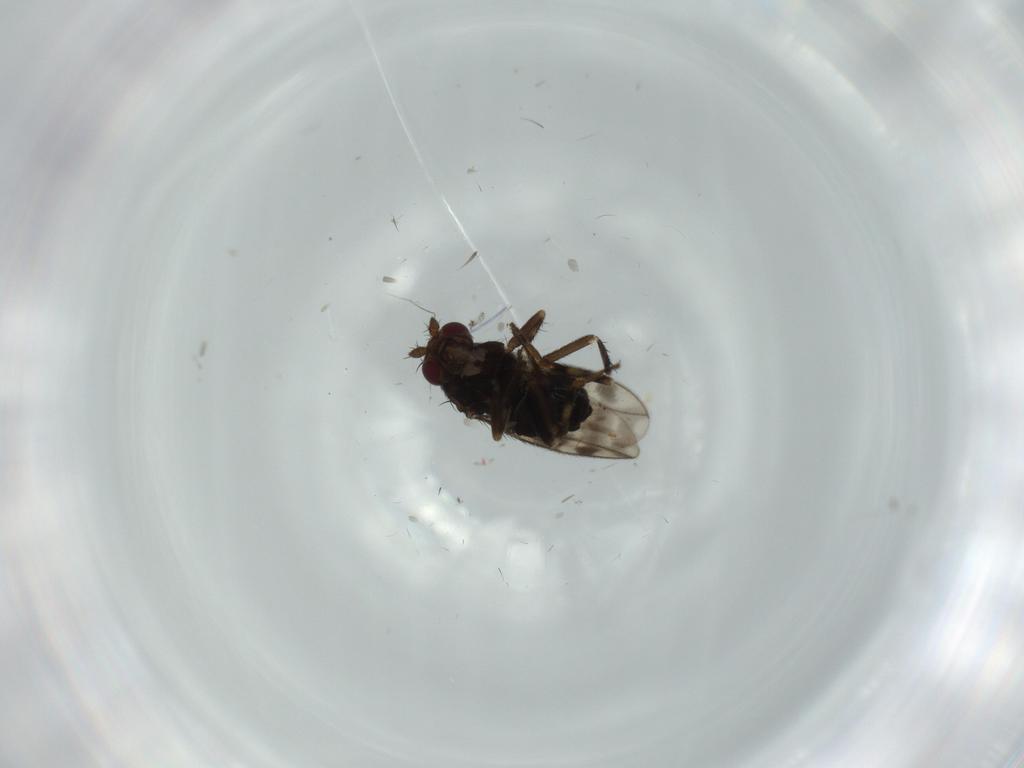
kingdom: Animalia
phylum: Arthropoda
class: Insecta
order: Diptera
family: Sphaeroceridae
